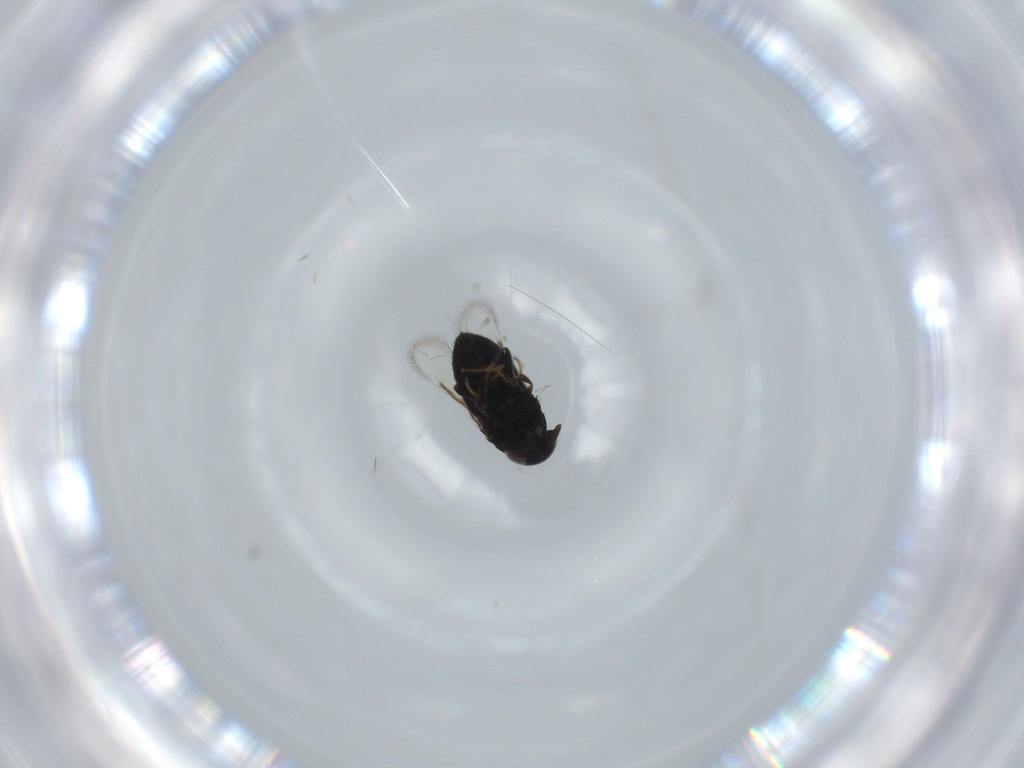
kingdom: Animalia
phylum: Arthropoda
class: Insecta
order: Hymenoptera
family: Signiphoridae
